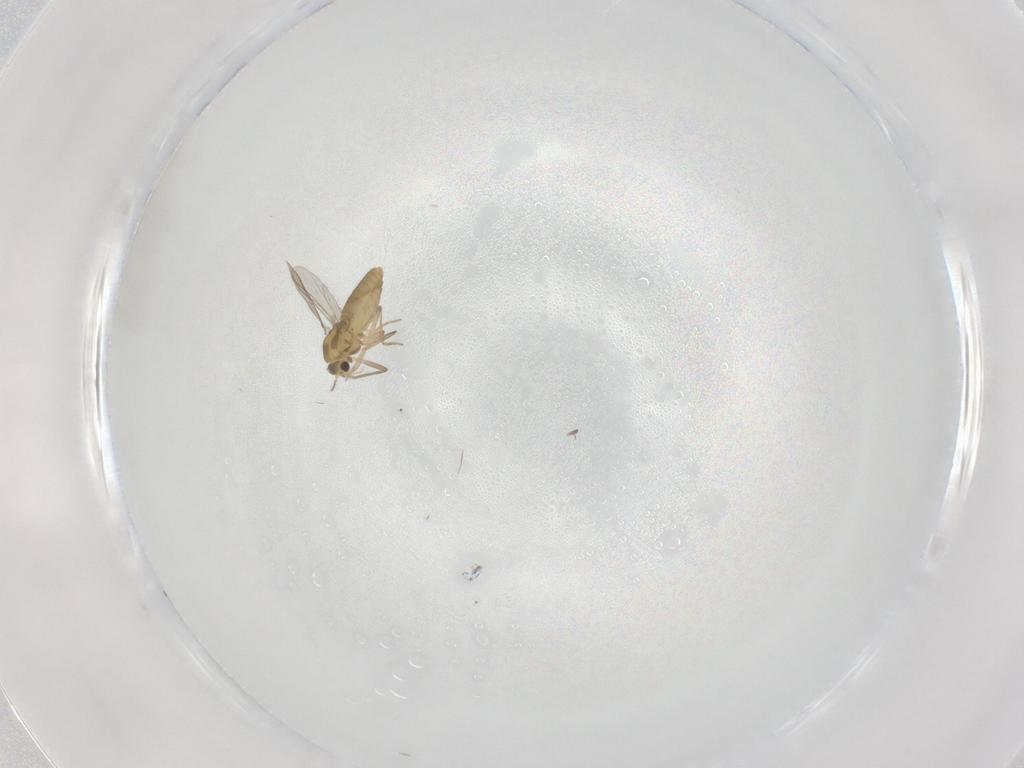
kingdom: Animalia
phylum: Arthropoda
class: Insecta
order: Diptera
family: Chironomidae
